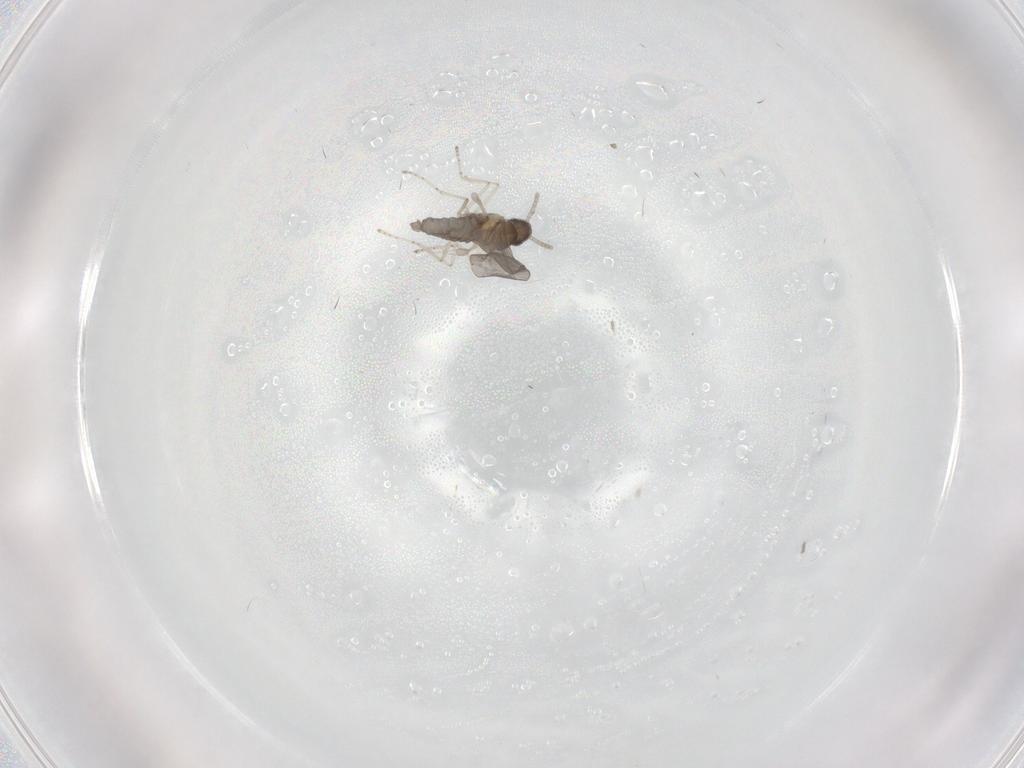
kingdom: Animalia
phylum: Arthropoda
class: Insecta
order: Diptera
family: Cecidomyiidae
